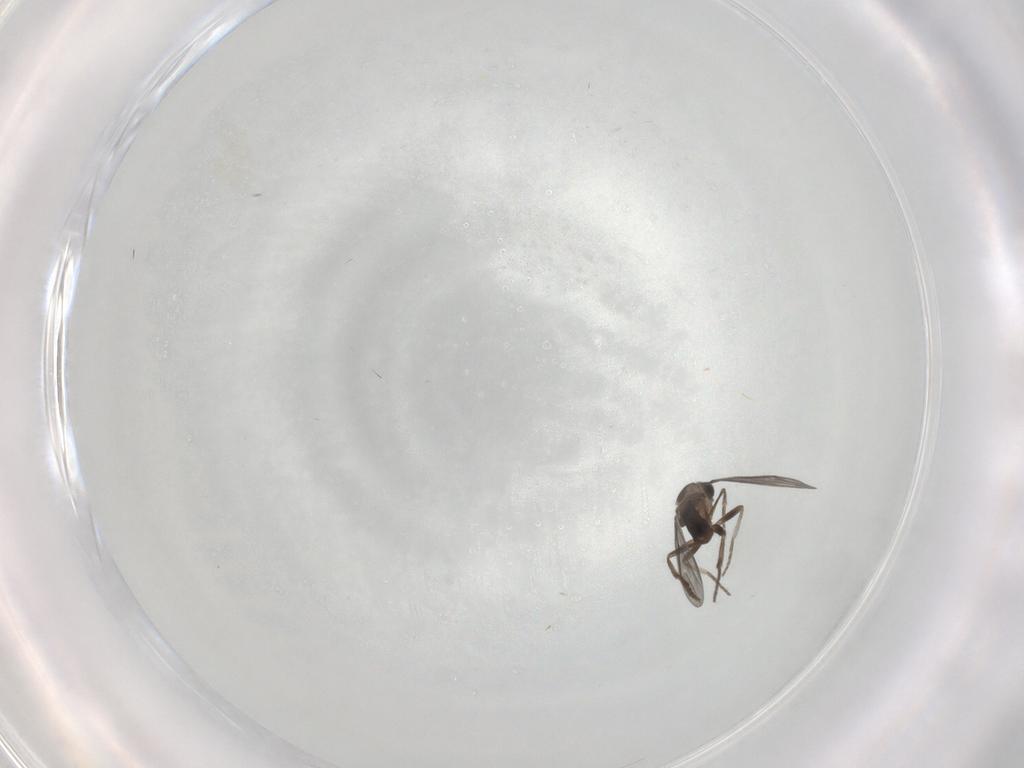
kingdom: Animalia
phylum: Arthropoda
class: Insecta
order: Diptera
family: Phoridae
